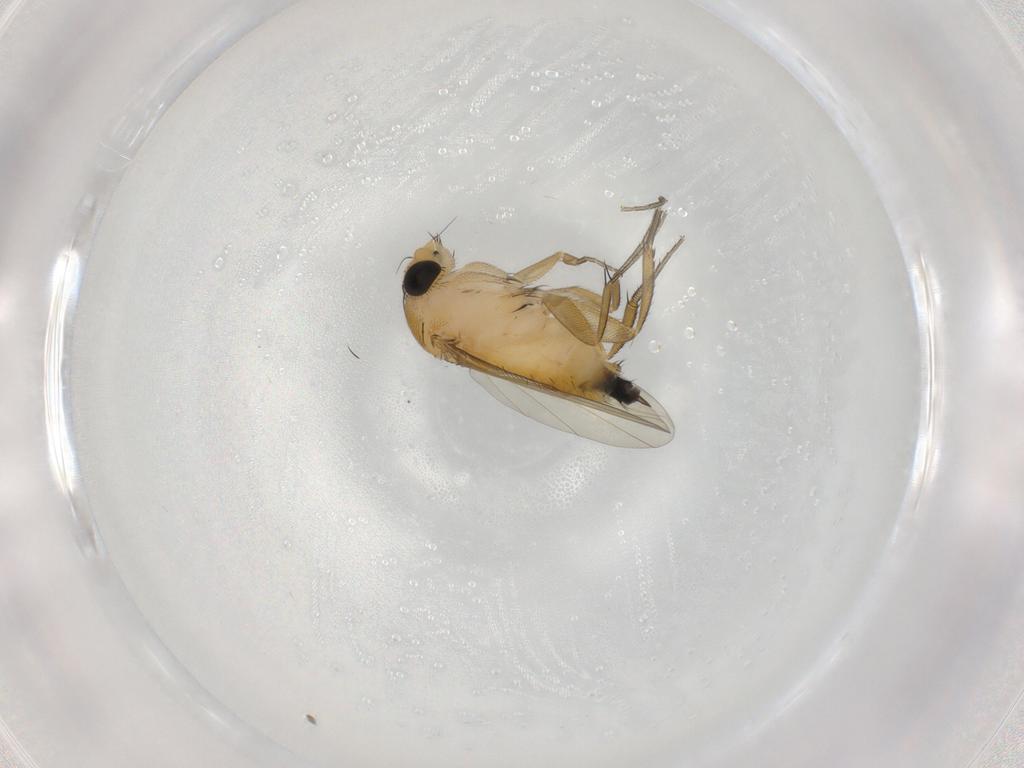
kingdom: Animalia
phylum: Arthropoda
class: Insecta
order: Diptera
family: Phoridae
